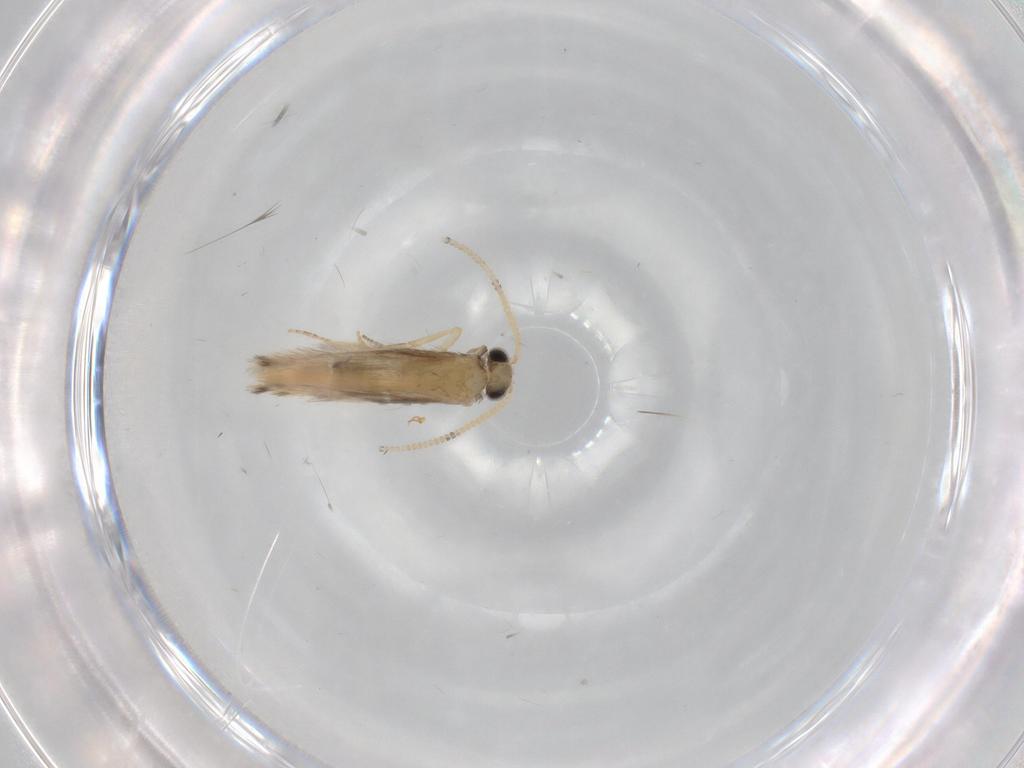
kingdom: Animalia
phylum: Arthropoda
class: Insecta
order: Trichoptera
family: Hydroptilidae
